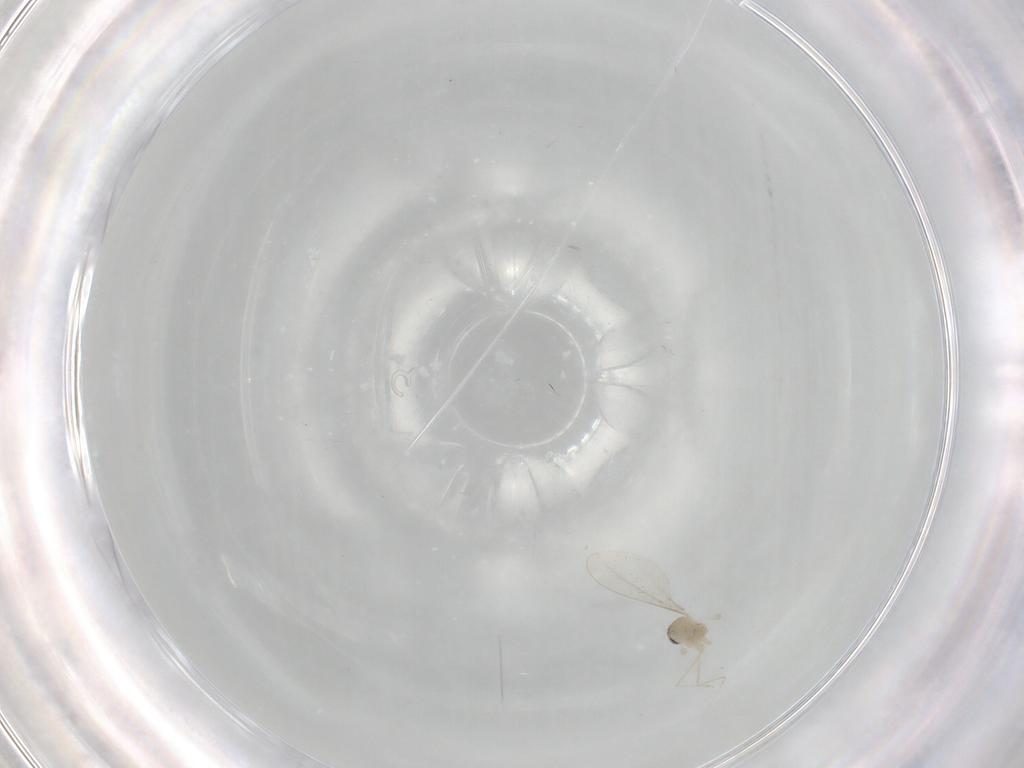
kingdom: Animalia
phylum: Arthropoda
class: Insecta
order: Diptera
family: Cecidomyiidae
